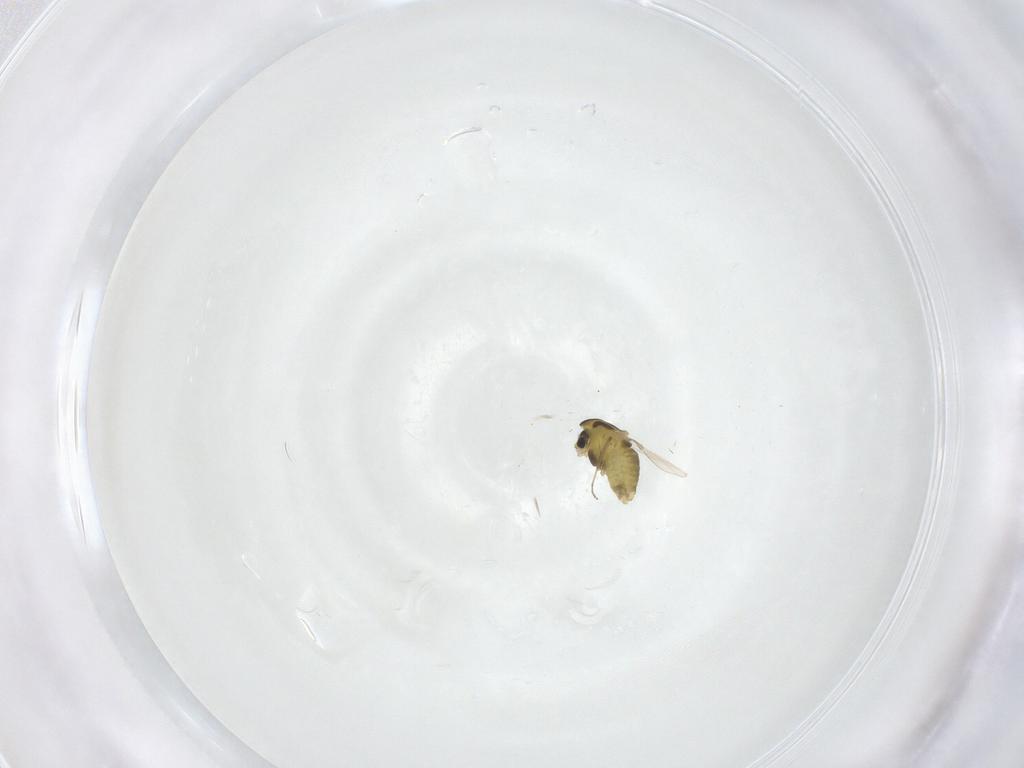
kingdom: Animalia
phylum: Arthropoda
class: Insecta
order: Diptera
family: Chironomidae
